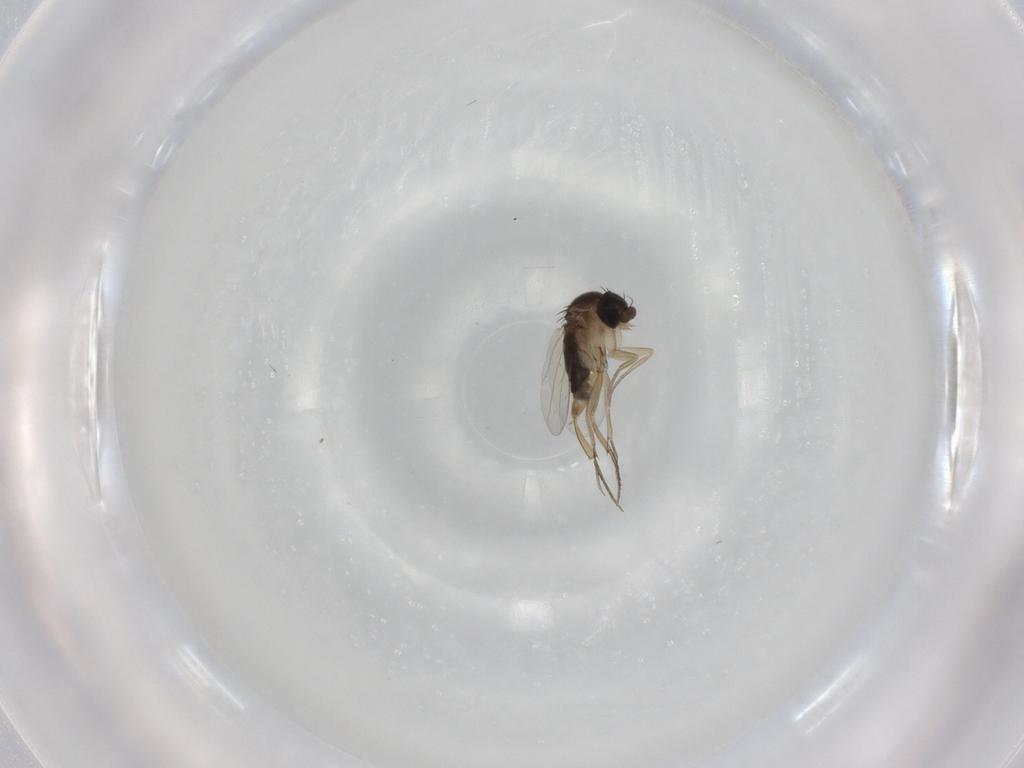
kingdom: Animalia
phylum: Arthropoda
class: Insecta
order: Diptera
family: Phoridae
